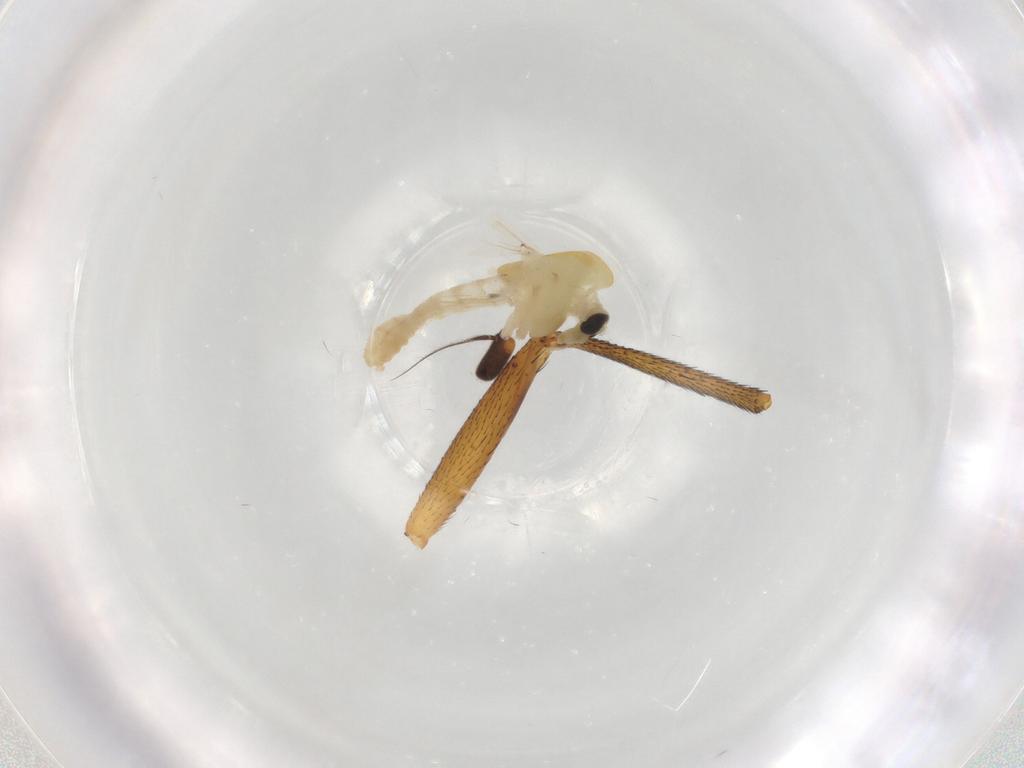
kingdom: Animalia
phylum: Arthropoda
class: Insecta
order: Diptera
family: Anthomyiidae
